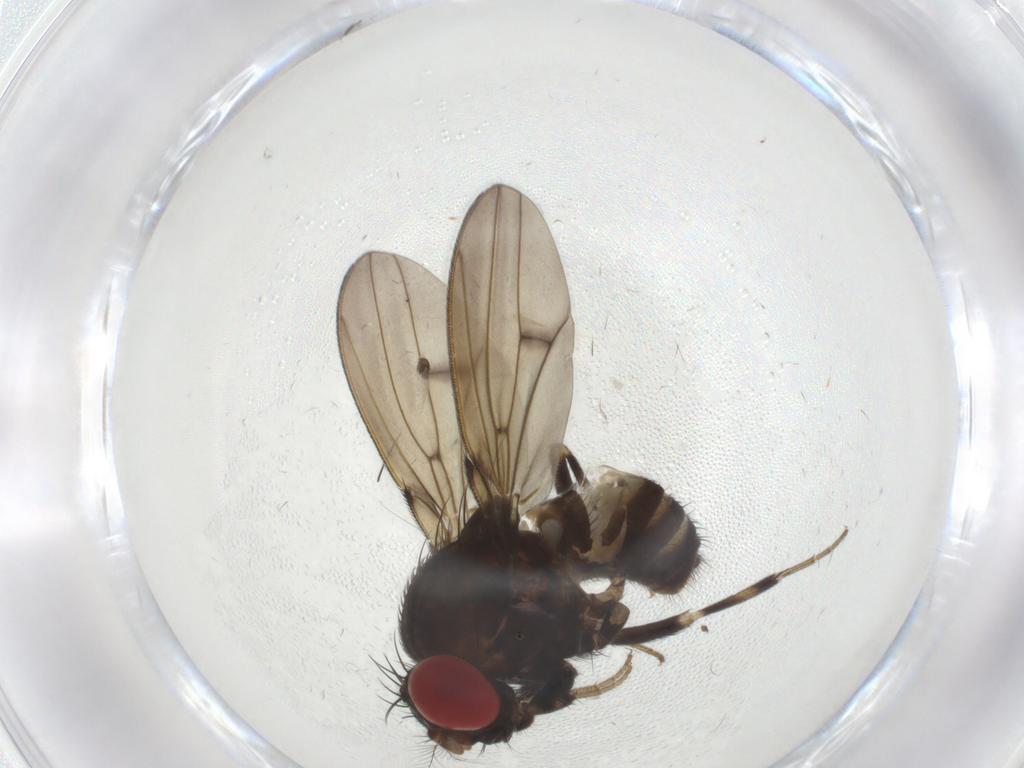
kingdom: Animalia
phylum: Arthropoda
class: Insecta
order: Diptera
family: Drosophilidae
